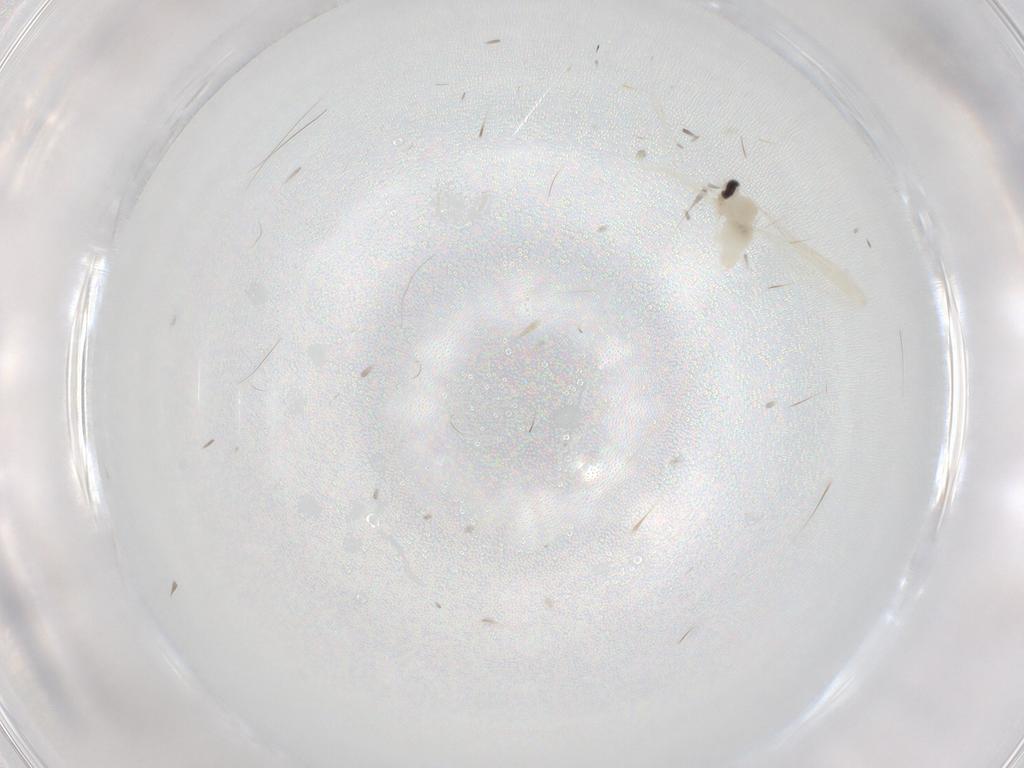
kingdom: Animalia
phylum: Arthropoda
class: Insecta
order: Diptera
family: Cecidomyiidae
